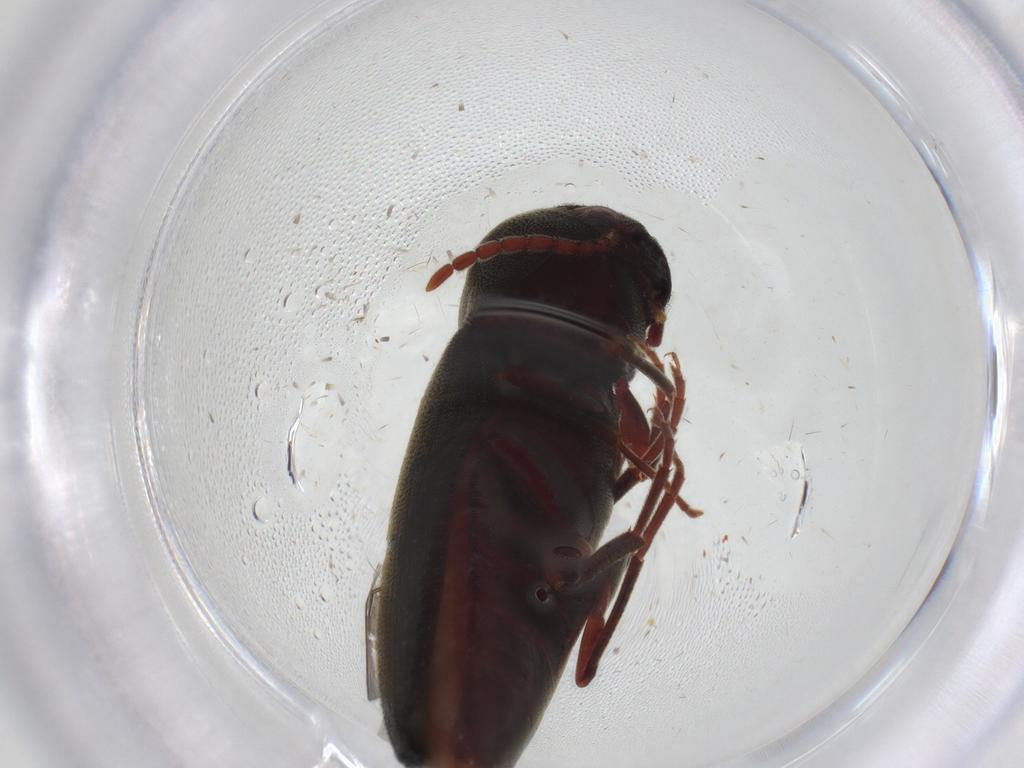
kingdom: Animalia
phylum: Arthropoda
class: Insecta
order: Coleoptera
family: Eucnemidae
